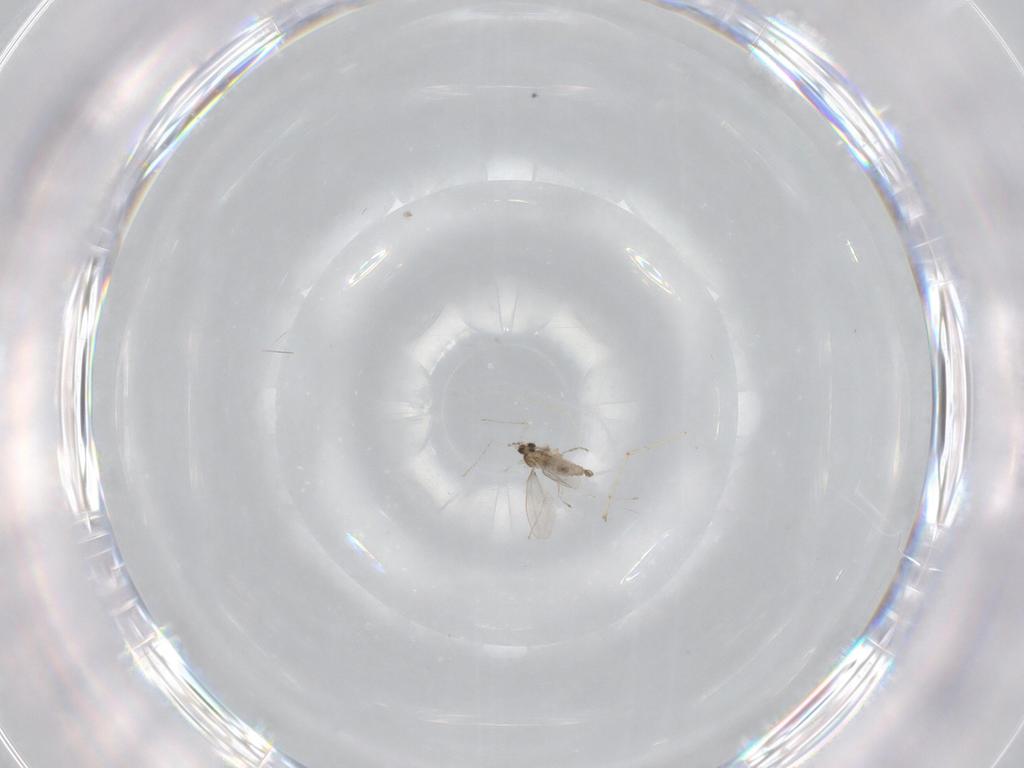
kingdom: Animalia
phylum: Arthropoda
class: Insecta
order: Diptera
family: Cecidomyiidae
